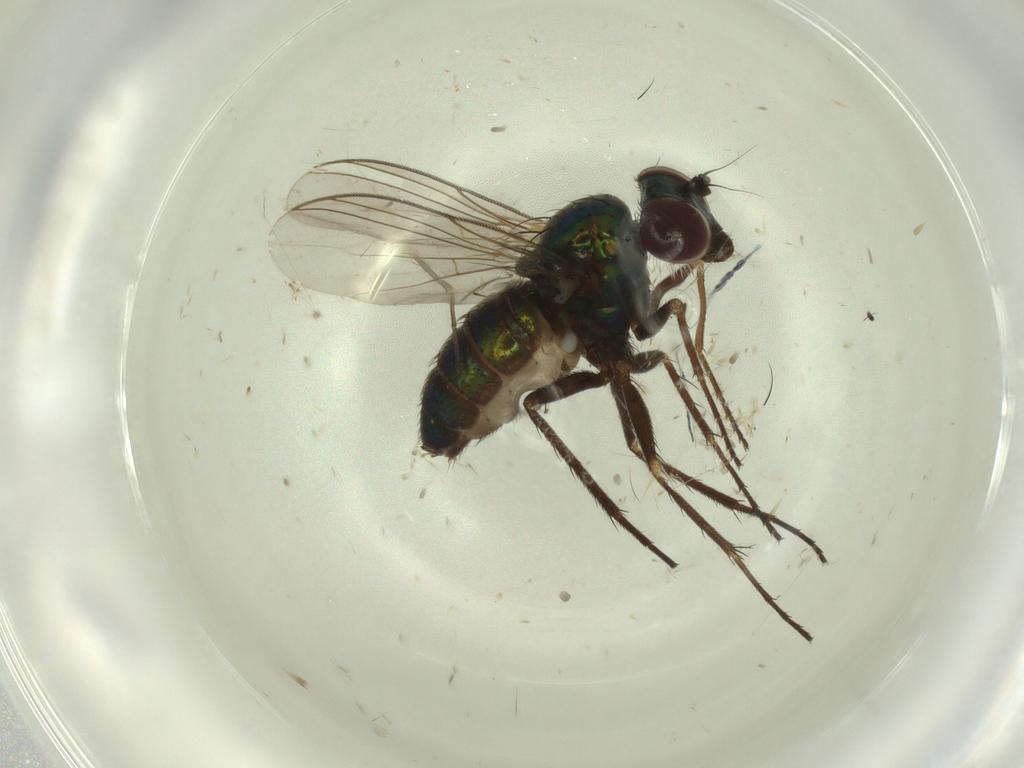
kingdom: Animalia
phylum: Arthropoda
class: Insecta
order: Diptera
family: Dolichopodidae
